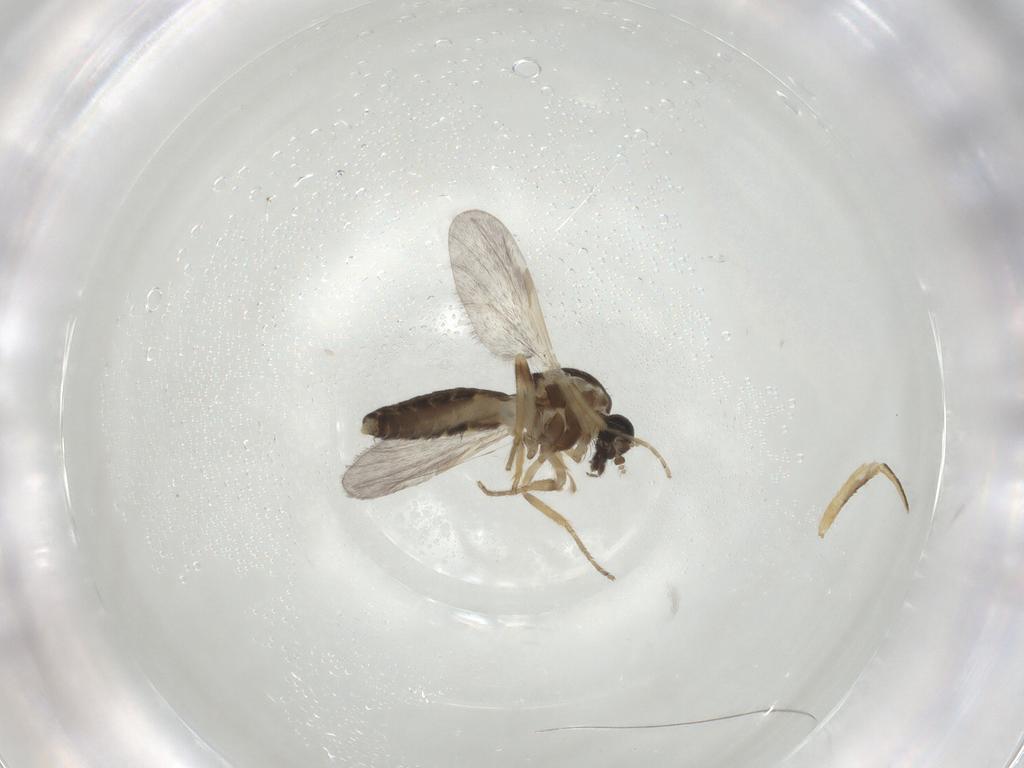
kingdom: Animalia
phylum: Arthropoda
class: Insecta
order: Diptera
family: Ceratopogonidae
